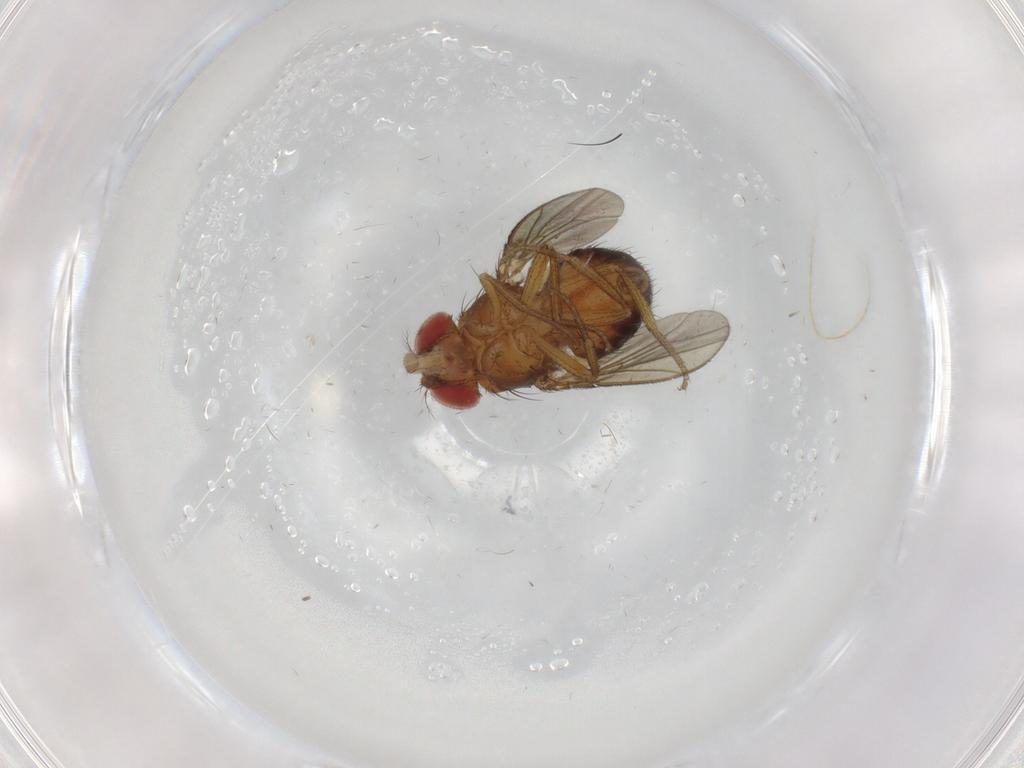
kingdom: Animalia
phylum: Arthropoda
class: Insecta
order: Diptera
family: Drosophilidae
